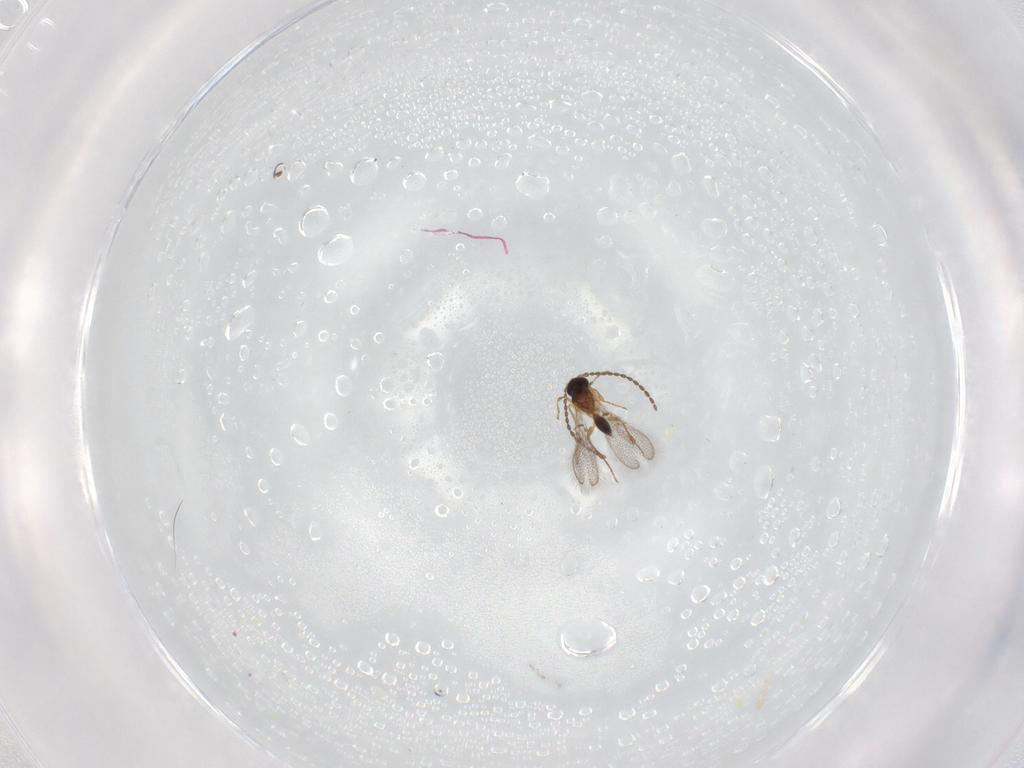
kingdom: Animalia
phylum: Arthropoda
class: Insecta
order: Hymenoptera
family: Figitidae
